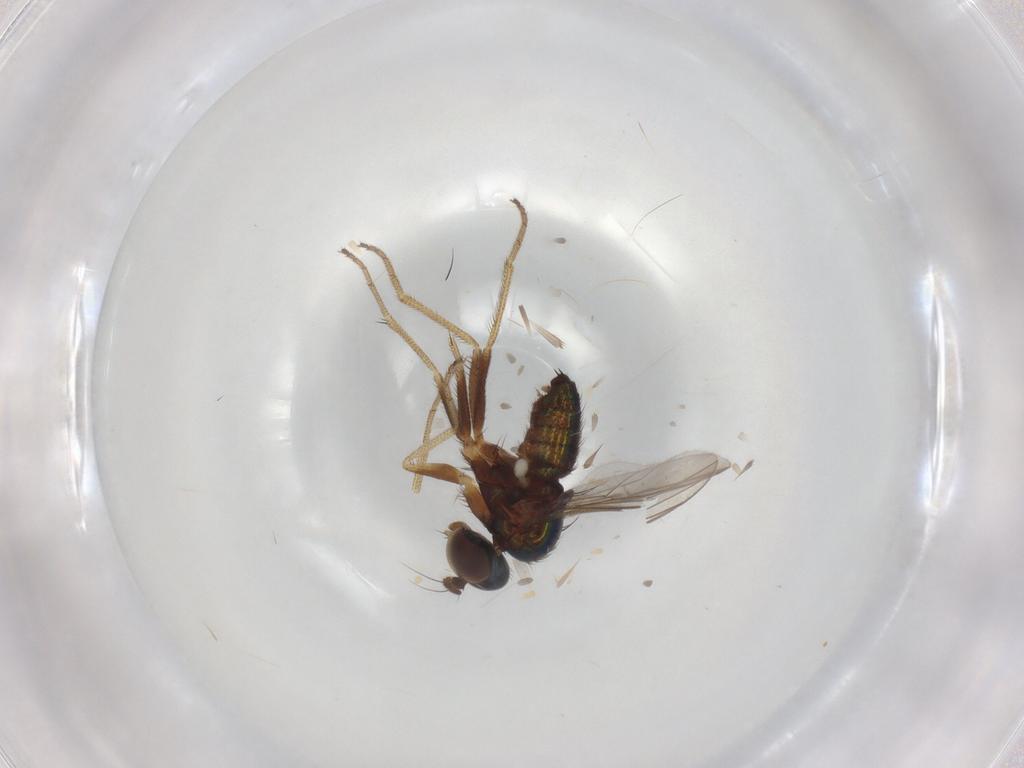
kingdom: Animalia
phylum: Arthropoda
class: Insecta
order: Diptera
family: Dolichopodidae
